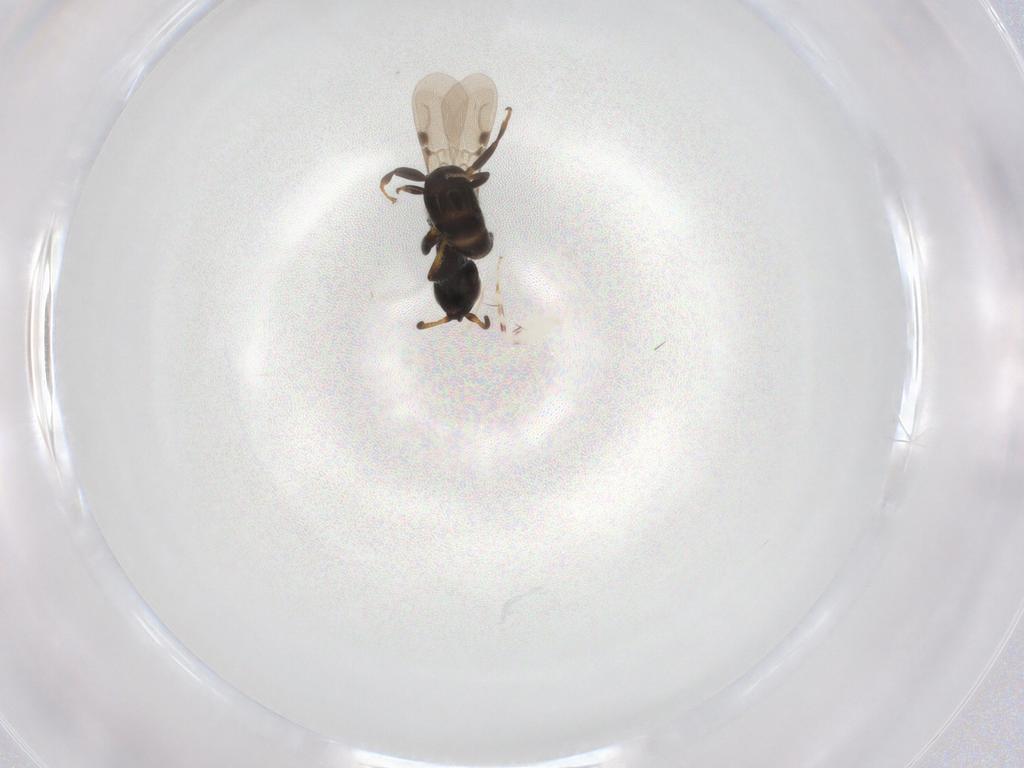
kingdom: Animalia
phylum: Arthropoda
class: Insecta
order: Hymenoptera
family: Bethylidae
